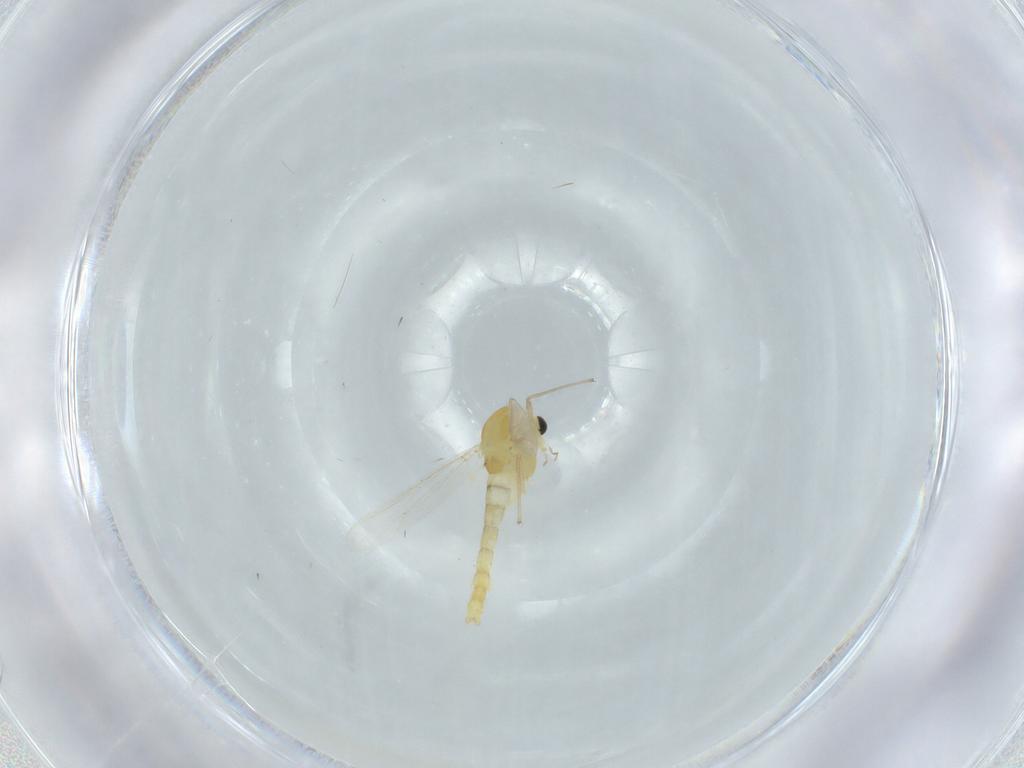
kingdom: Animalia
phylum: Arthropoda
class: Insecta
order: Diptera
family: Chironomidae
